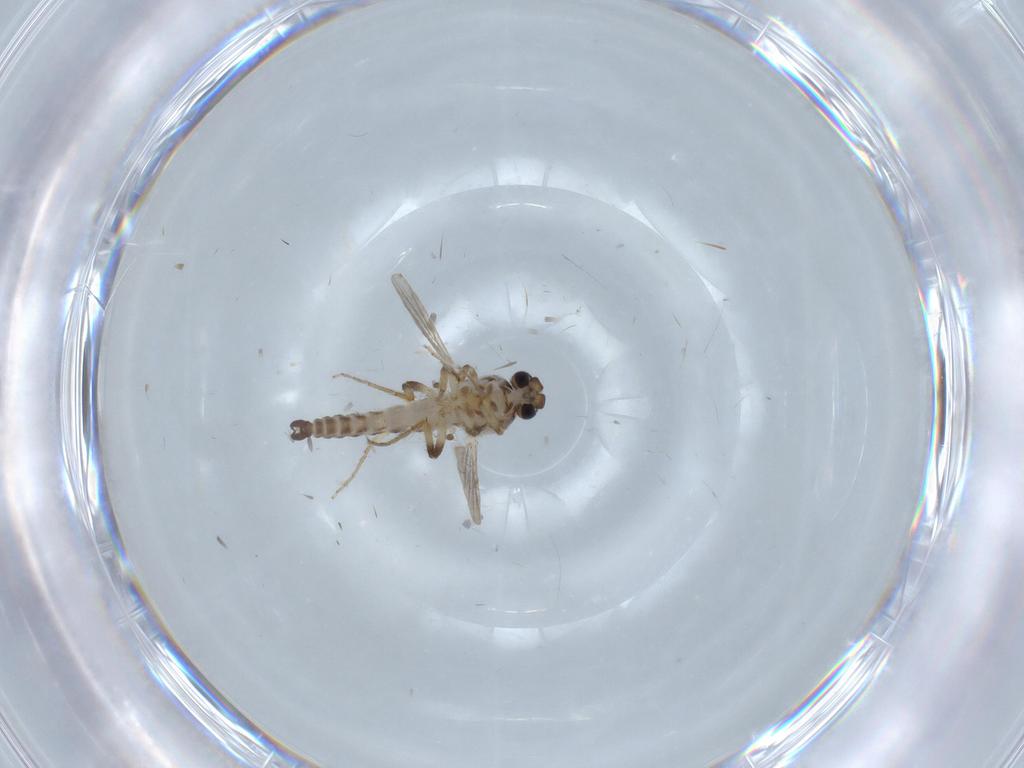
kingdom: Animalia
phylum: Arthropoda
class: Insecta
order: Diptera
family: Ceratopogonidae
